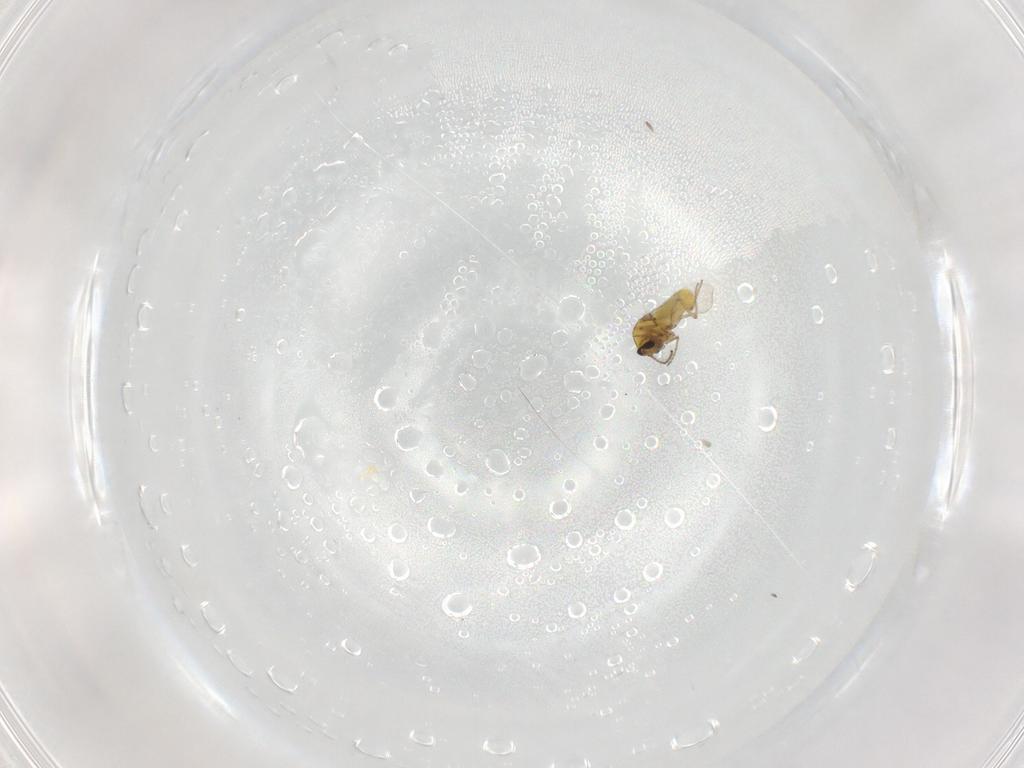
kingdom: Animalia
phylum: Arthropoda
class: Insecta
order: Diptera
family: Ceratopogonidae
